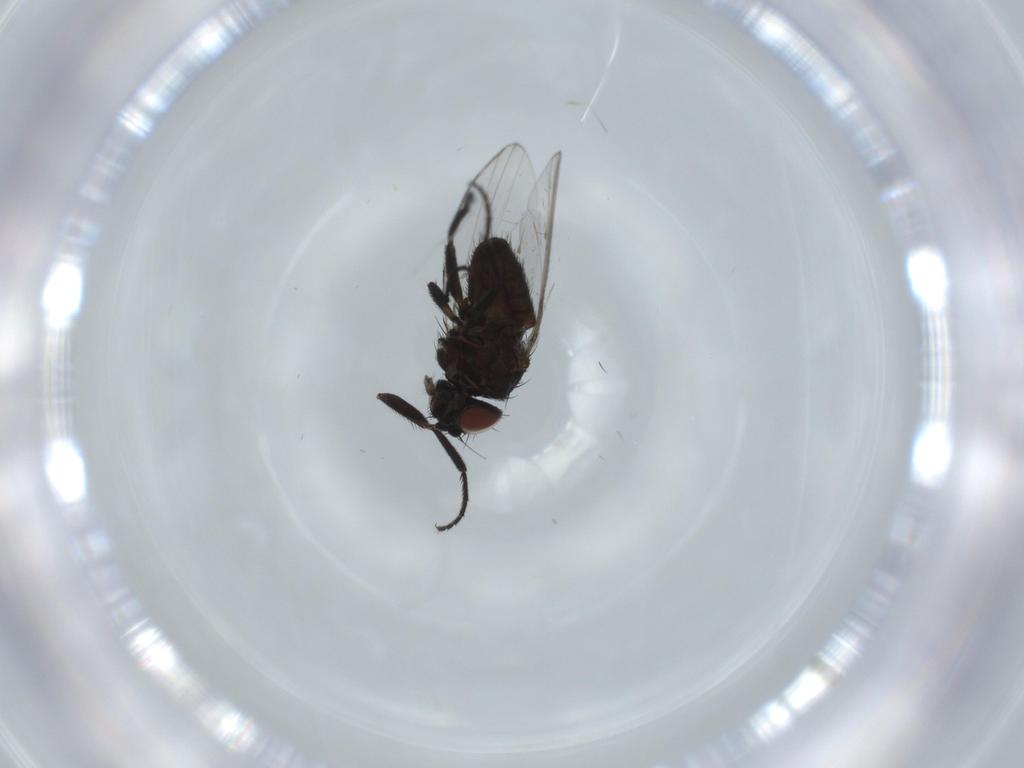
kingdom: Animalia
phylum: Arthropoda
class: Insecta
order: Diptera
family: Milichiidae
